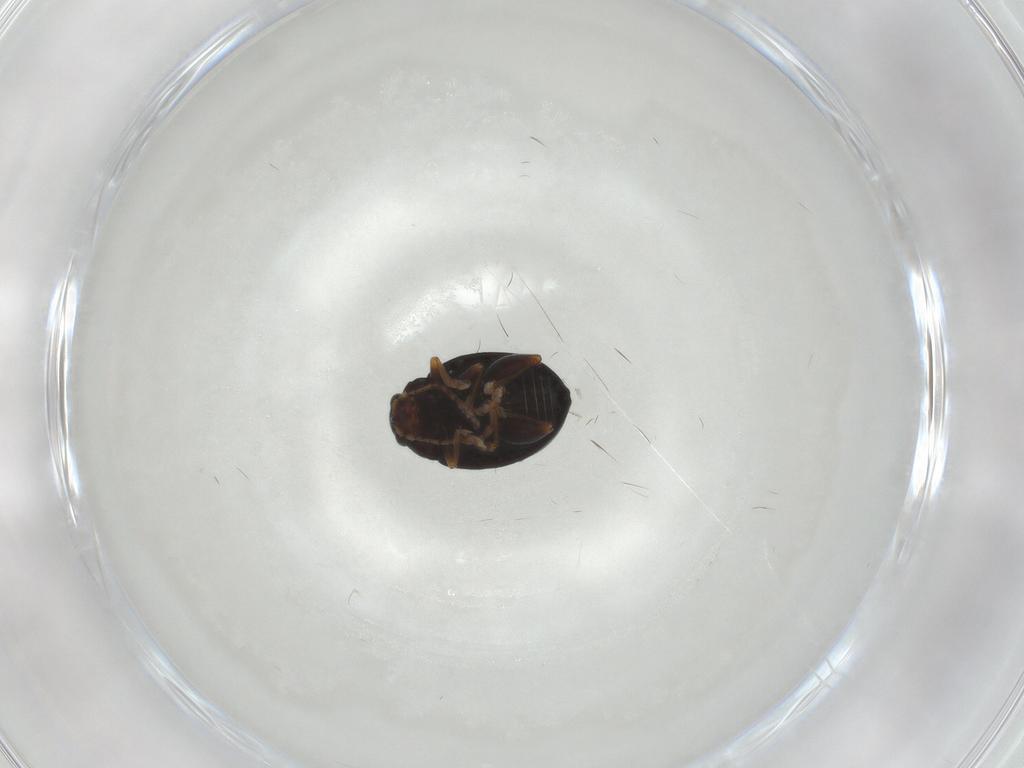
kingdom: Animalia
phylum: Arthropoda
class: Insecta
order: Coleoptera
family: Chrysomelidae
